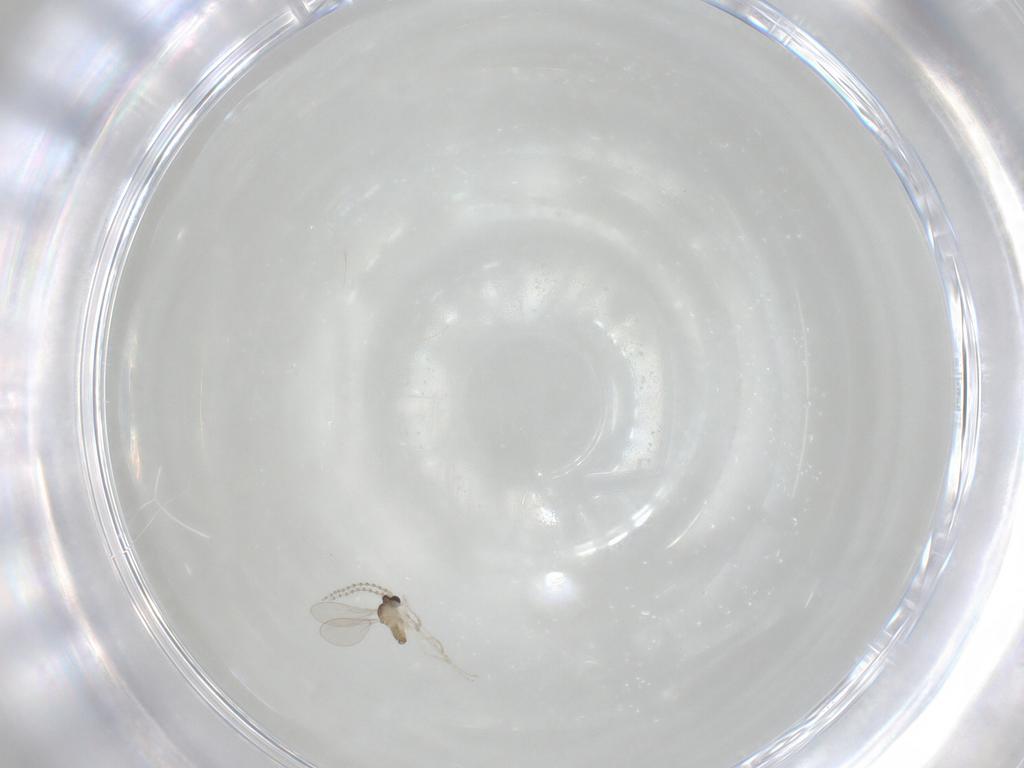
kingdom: Animalia
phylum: Arthropoda
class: Insecta
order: Diptera
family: Cecidomyiidae
